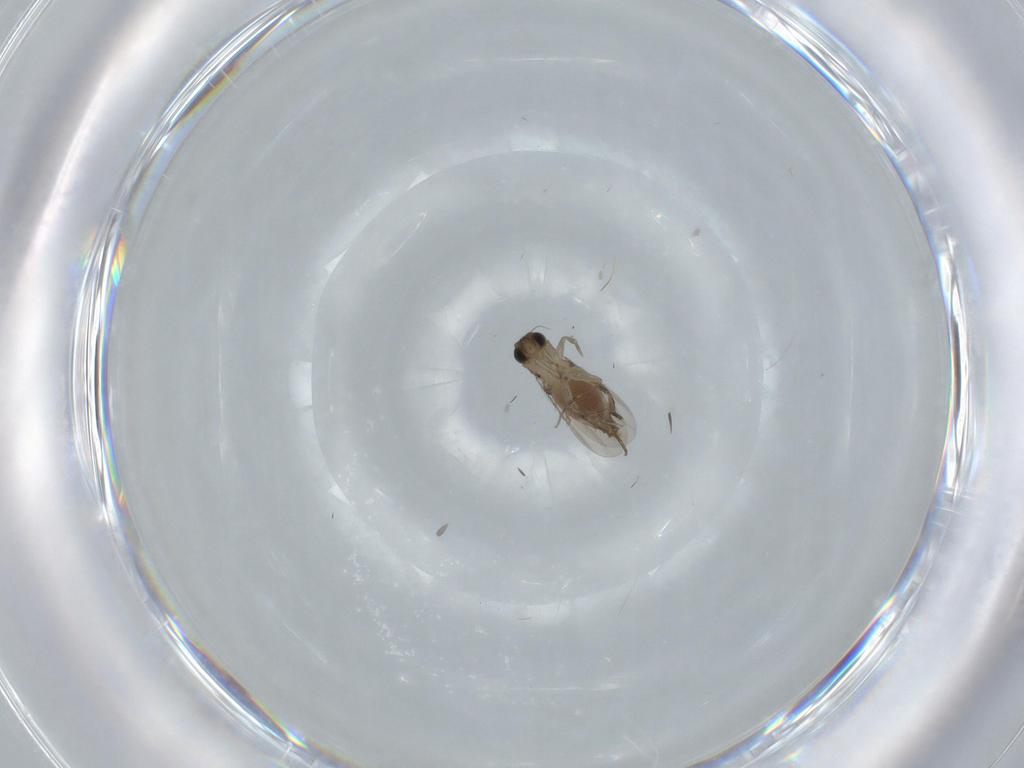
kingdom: Animalia
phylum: Arthropoda
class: Insecta
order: Diptera
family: Phoridae
